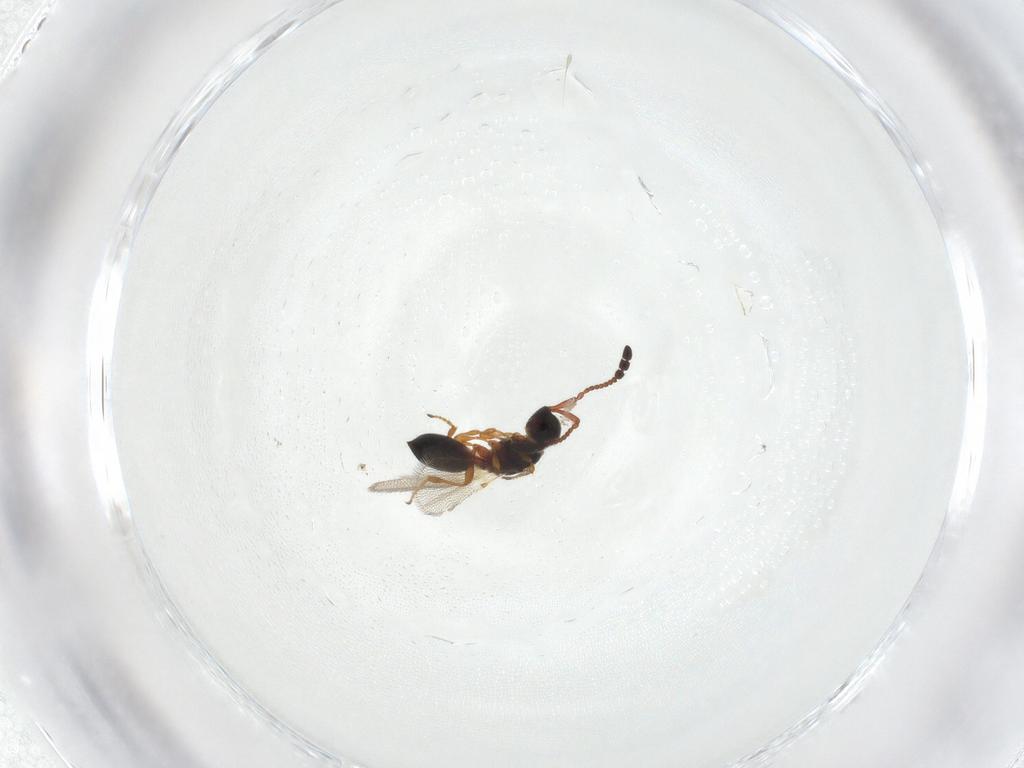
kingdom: Animalia
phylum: Arthropoda
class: Insecta
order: Hymenoptera
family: Diapriidae
